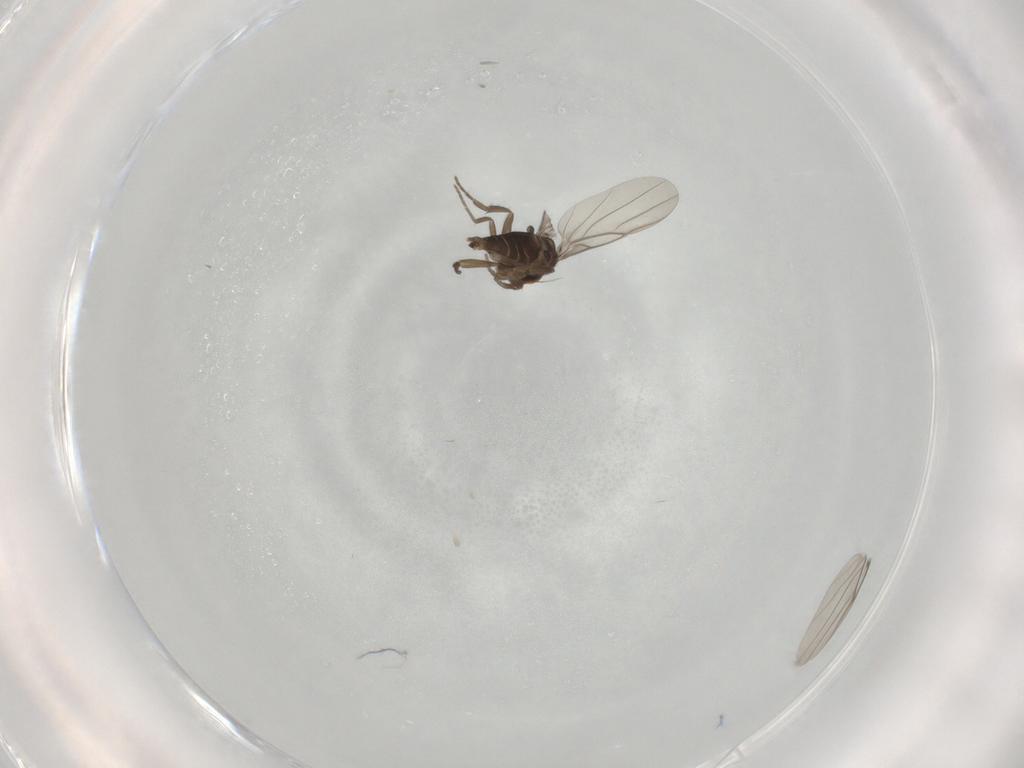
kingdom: Animalia
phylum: Arthropoda
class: Insecta
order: Diptera
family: Phoridae
